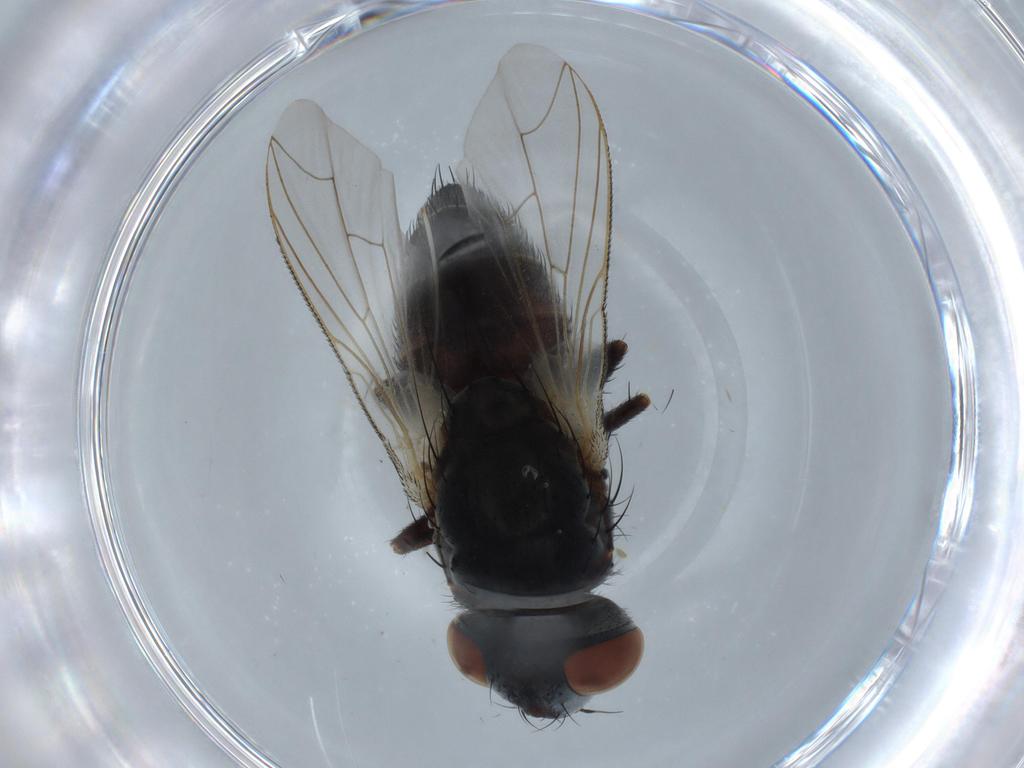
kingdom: Animalia
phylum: Arthropoda
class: Insecta
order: Diptera
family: Sarcophagidae
